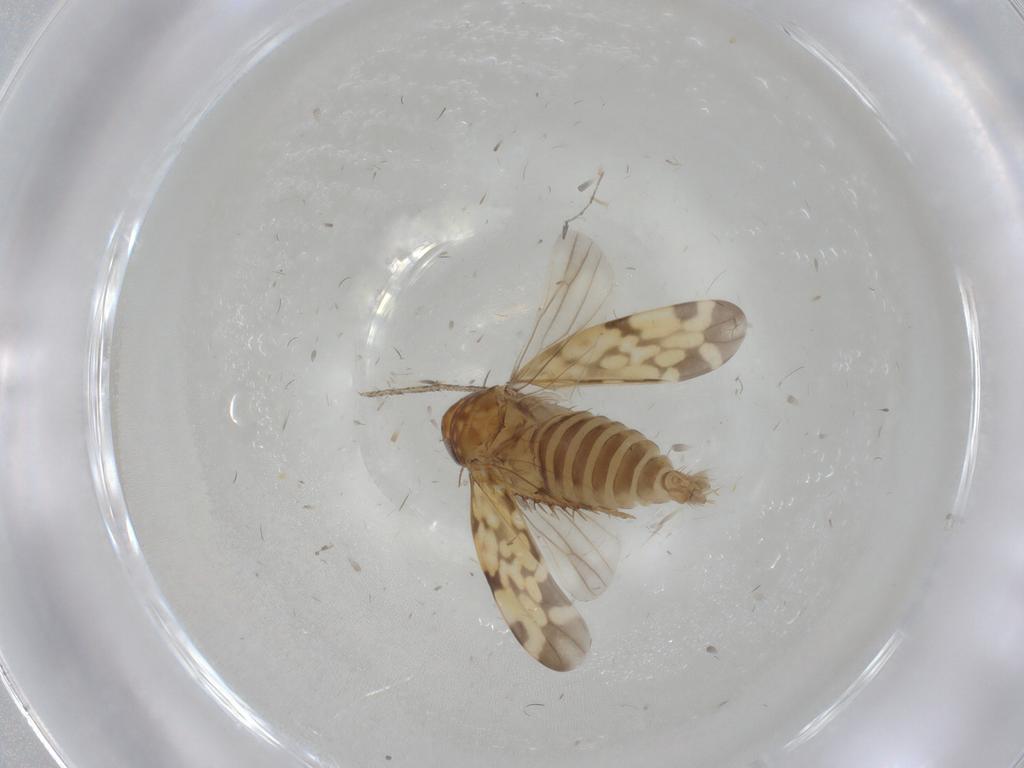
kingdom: Animalia
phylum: Arthropoda
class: Insecta
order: Hemiptera
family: Cicadellidae
